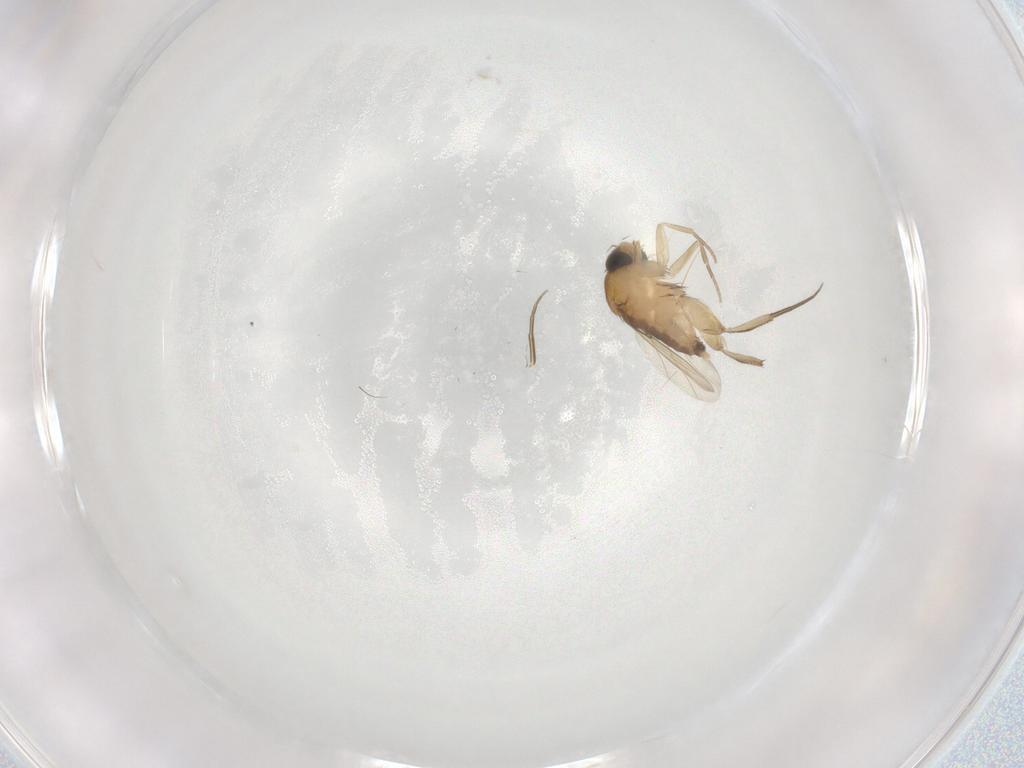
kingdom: Animalia
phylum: Arthropoda
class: Insecta
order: Diptera
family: Phoridae
